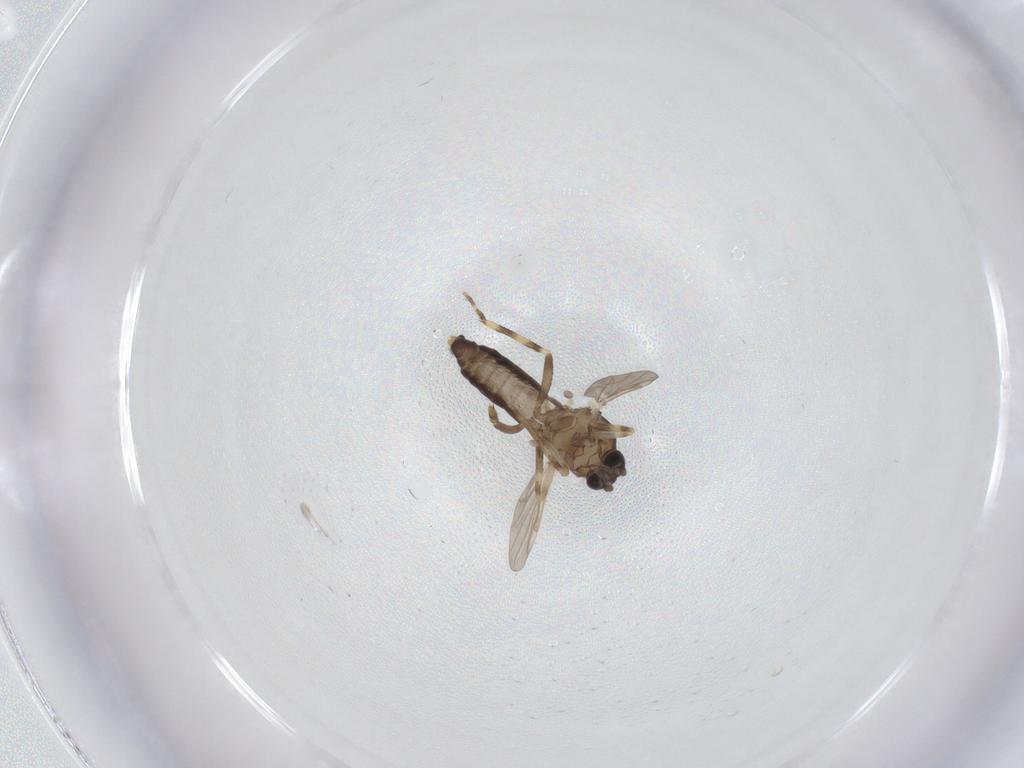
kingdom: Animalia
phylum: Arthropoda
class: Insecta
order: Diptera
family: Ceratopogonidae
